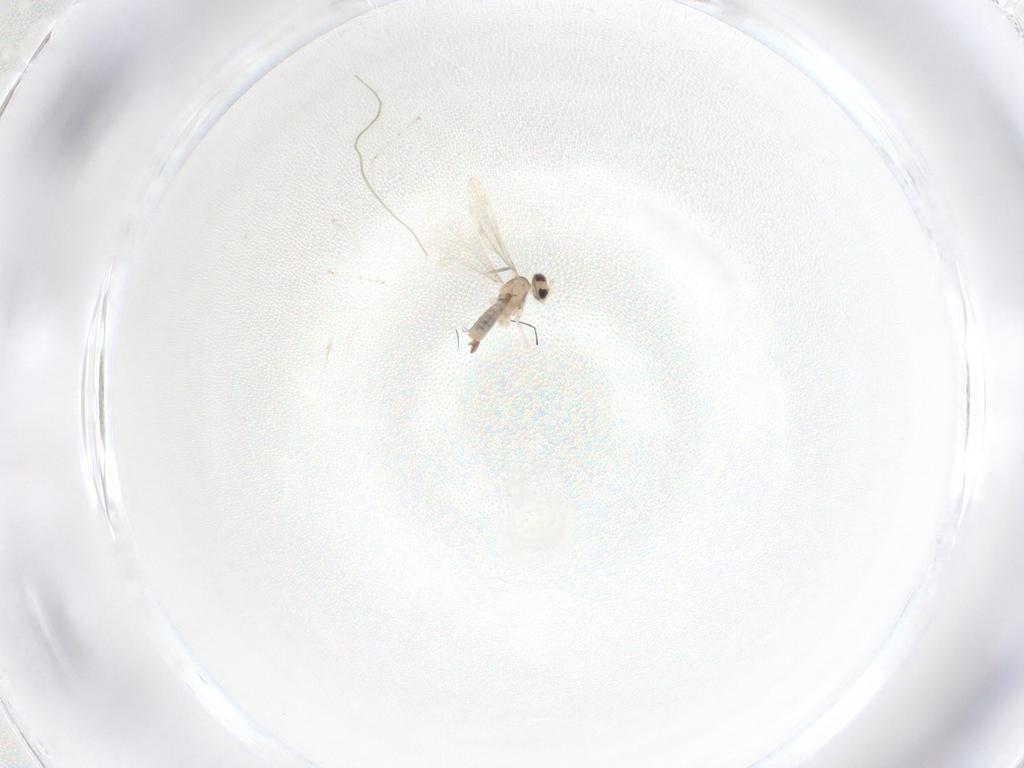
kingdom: Animalia
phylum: Arthropoda
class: Insecta
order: Diptera
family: Cecidomyiidae
